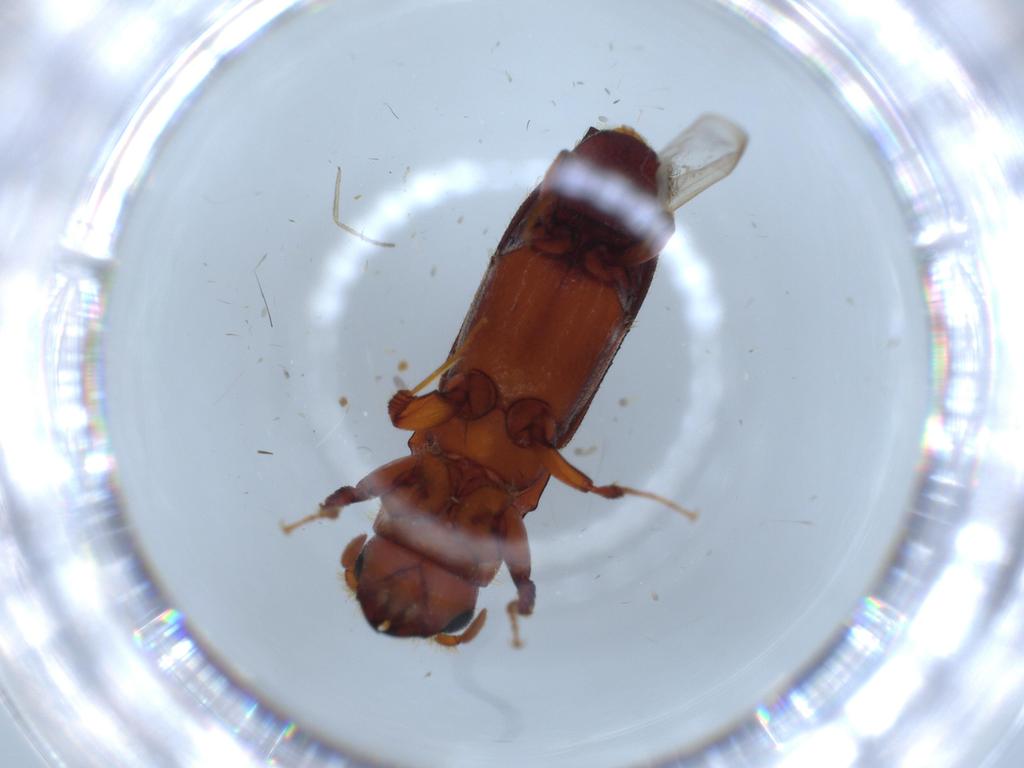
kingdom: Animalia
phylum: Arthropoda
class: Insecta
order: Coleoptera
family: Curculionidae
